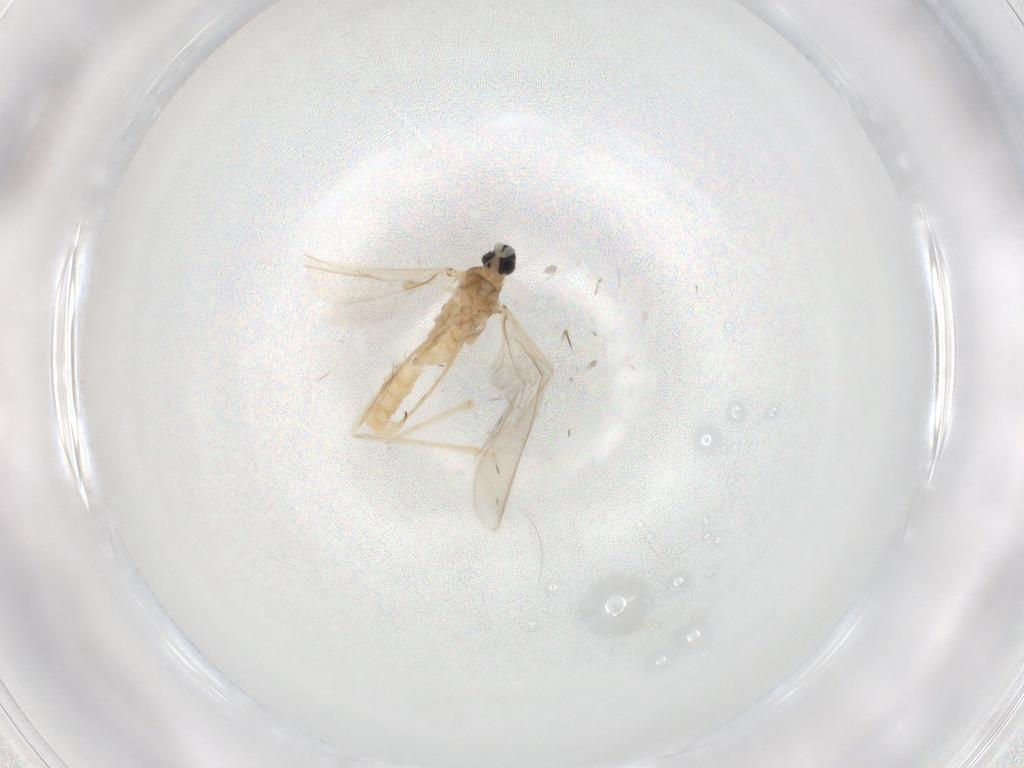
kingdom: Animalia
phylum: Arthropoda
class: Insecta
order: Diptera
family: Cecidomyiidae
